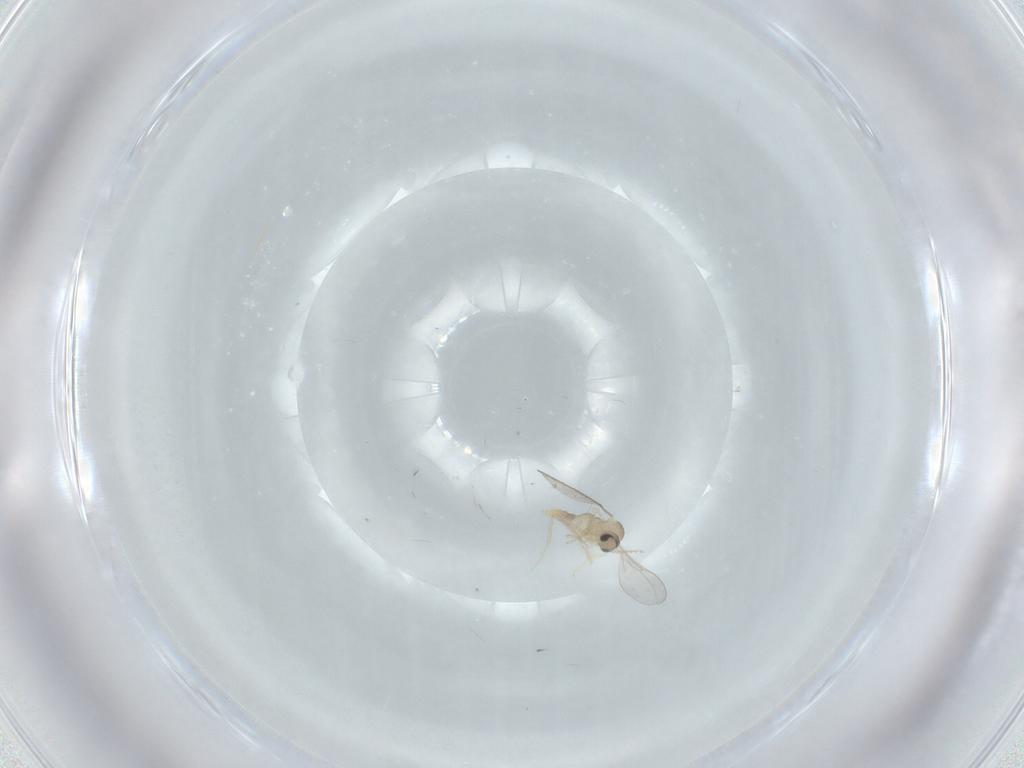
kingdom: Animalia
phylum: Arthropoda
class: Insecta
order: Diptera
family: Cecidomyiidae
